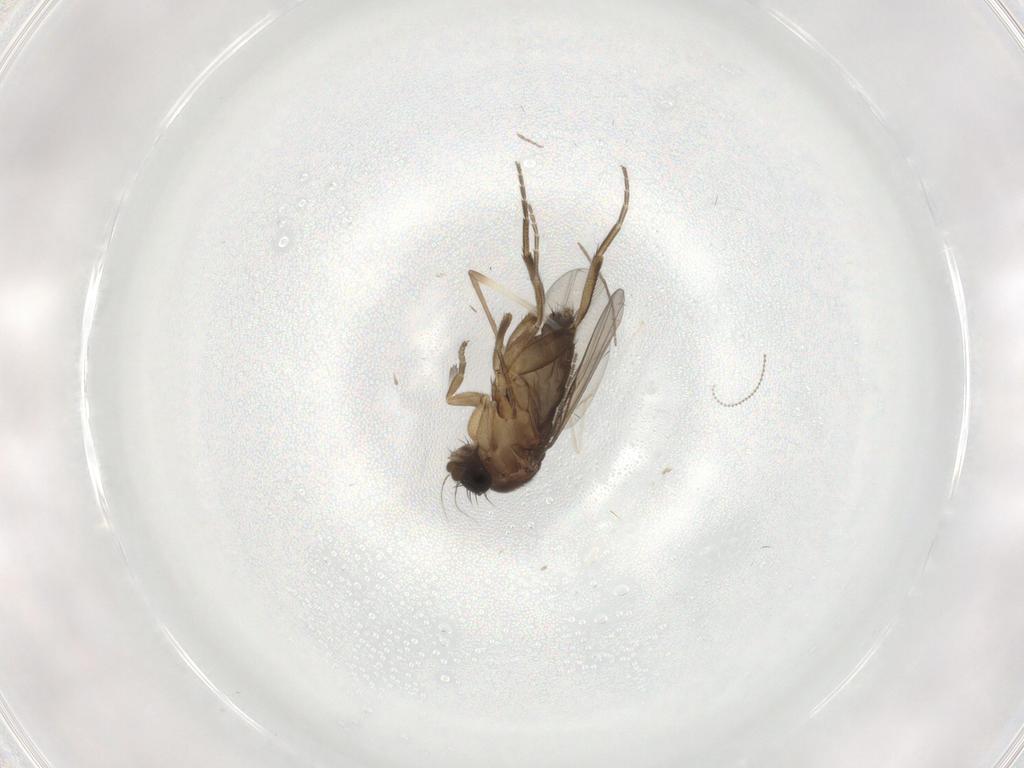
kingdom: Animalia
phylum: Arthropoda
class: Insecta
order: Diptera
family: Phoridae
